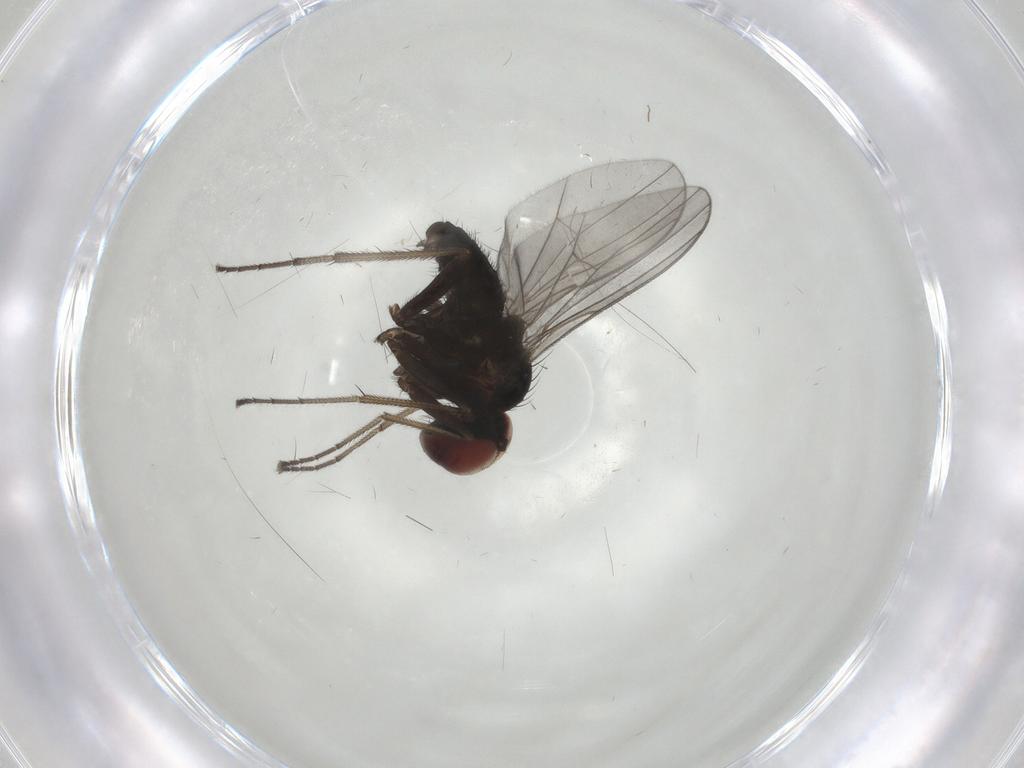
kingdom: Animalia
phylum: Arthropoda
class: Insecta
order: Diptera
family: Dolichopodidae
